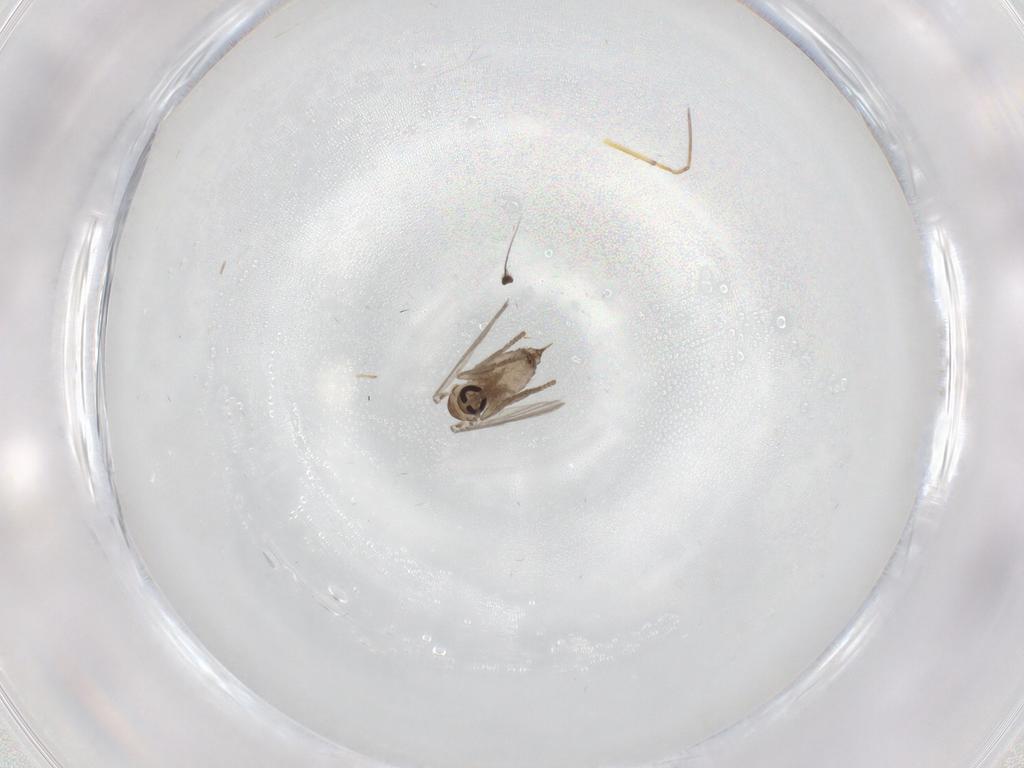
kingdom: Animalia
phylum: Arthropoda
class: Insecta
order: Diptera
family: Psychodidae
